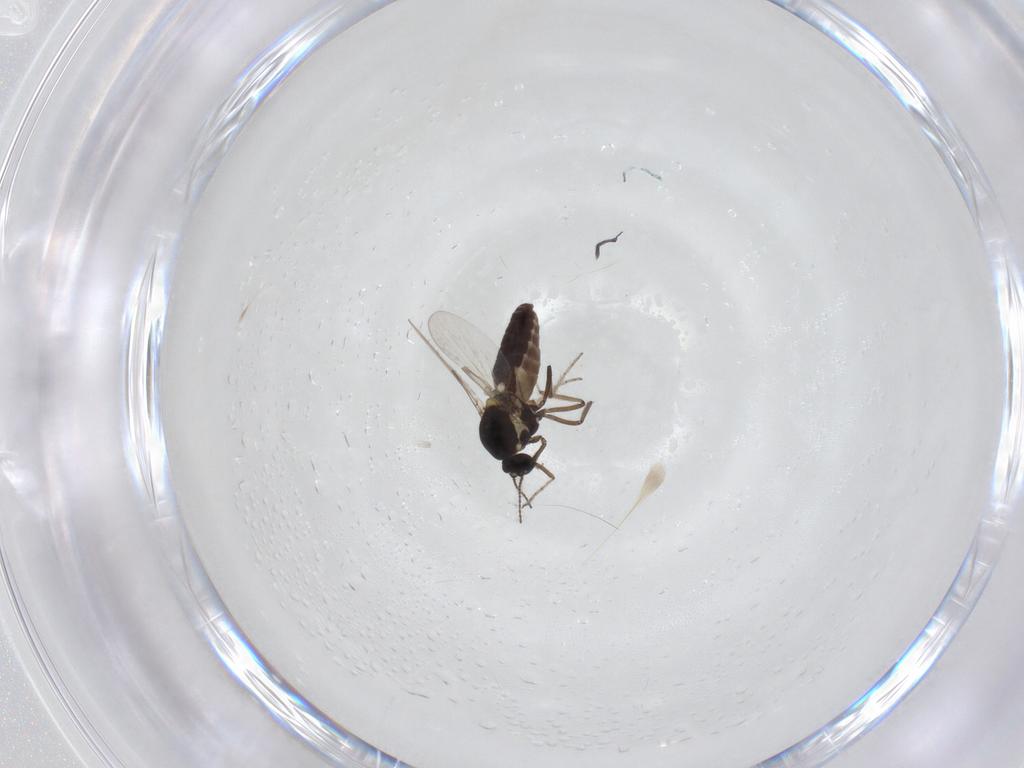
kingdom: Animalia
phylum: Arthropoda
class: Insecta
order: Diptera
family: Ceratopogonidae
